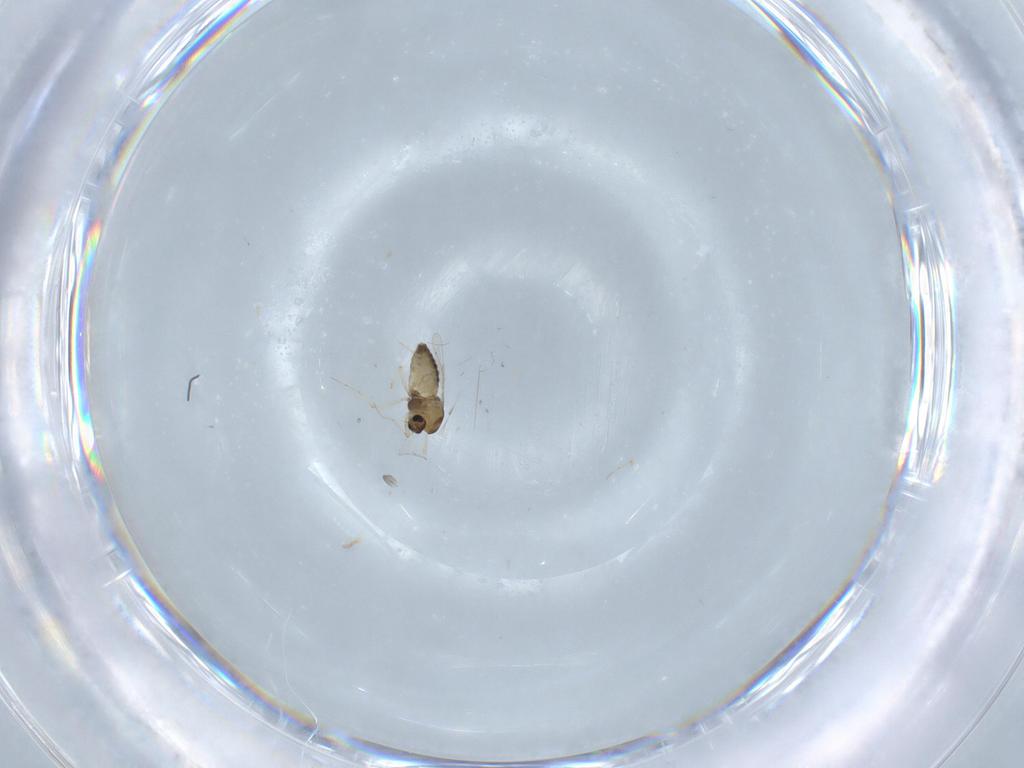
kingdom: Animalia
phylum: Arthropoda
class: Insecta
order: Diptera
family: Chironomidae
